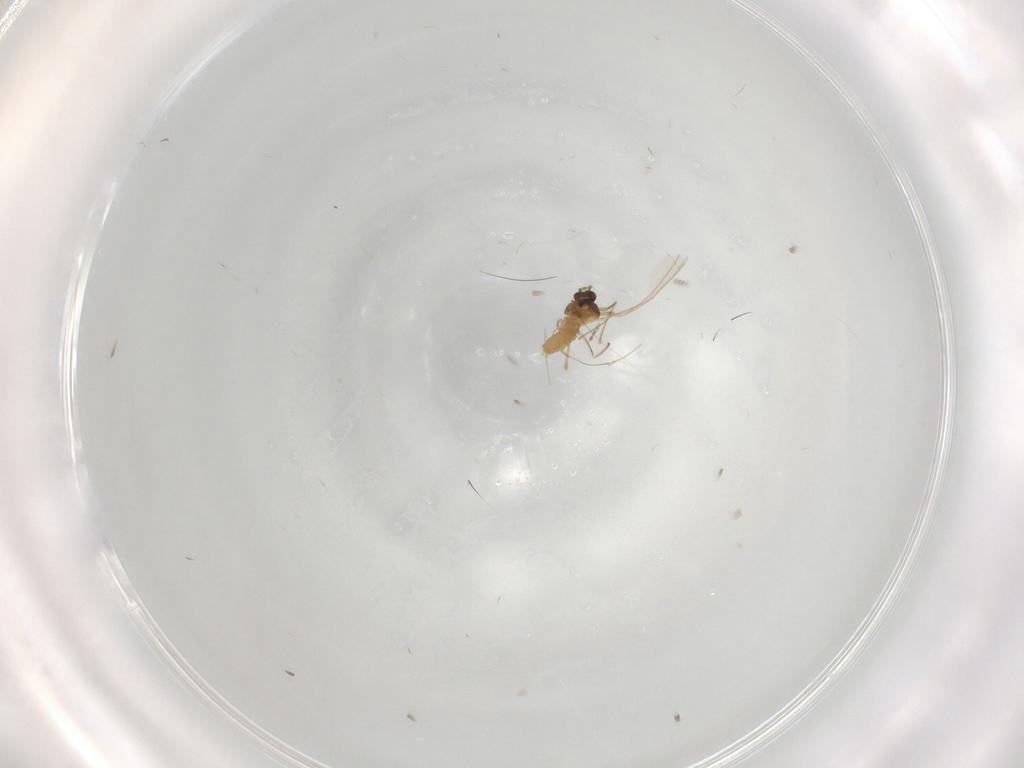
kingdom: Animalia
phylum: Arthropoda
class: Insecta
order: Diptera
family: Cecidomyiidae
